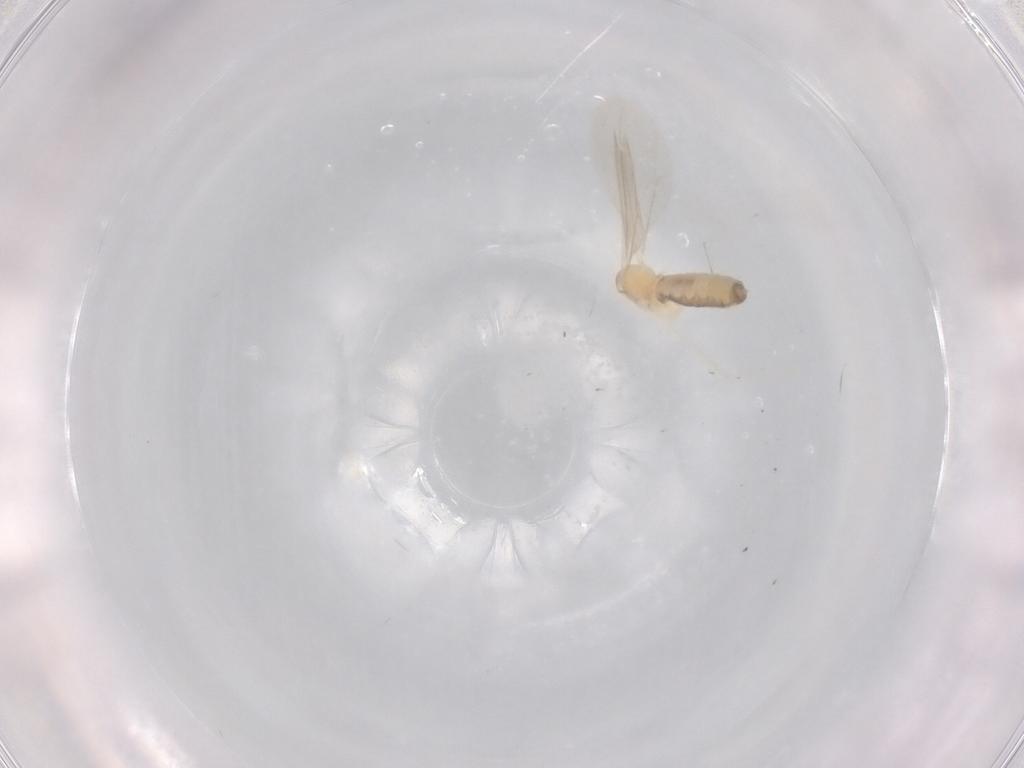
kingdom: Animalia
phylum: Arthropoda
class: Insecta
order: Diptera
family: Cecidomyiidae
